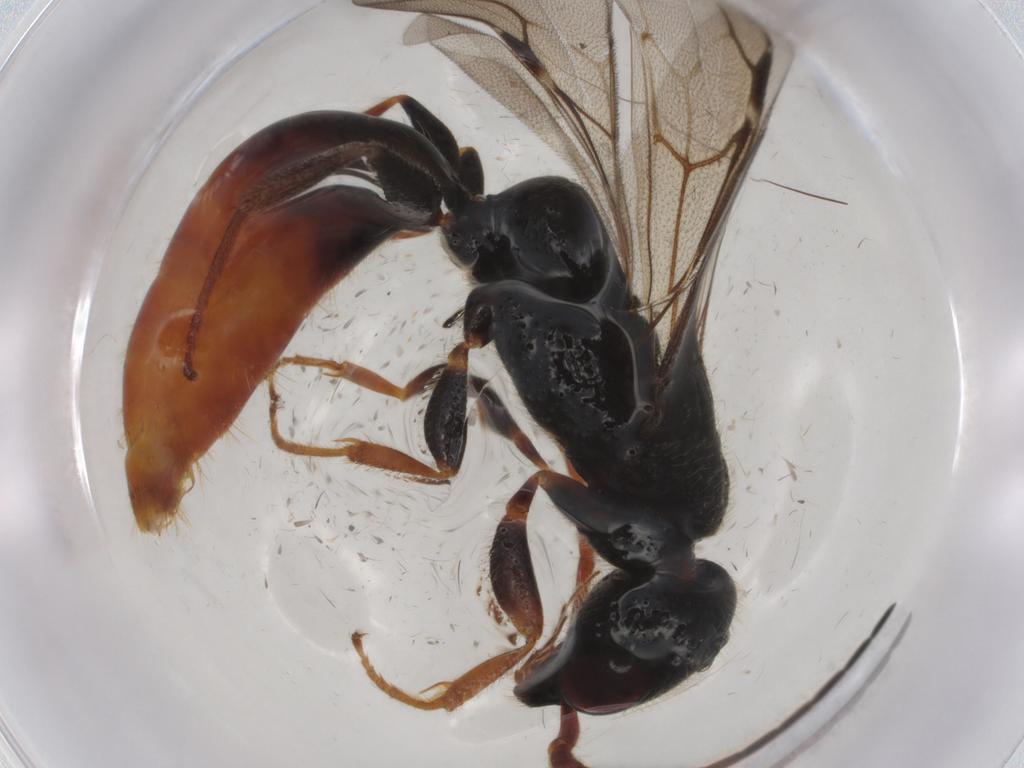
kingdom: Animalia
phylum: Arthropoda
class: Insecta
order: Hymenoptera
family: Bethylidae
